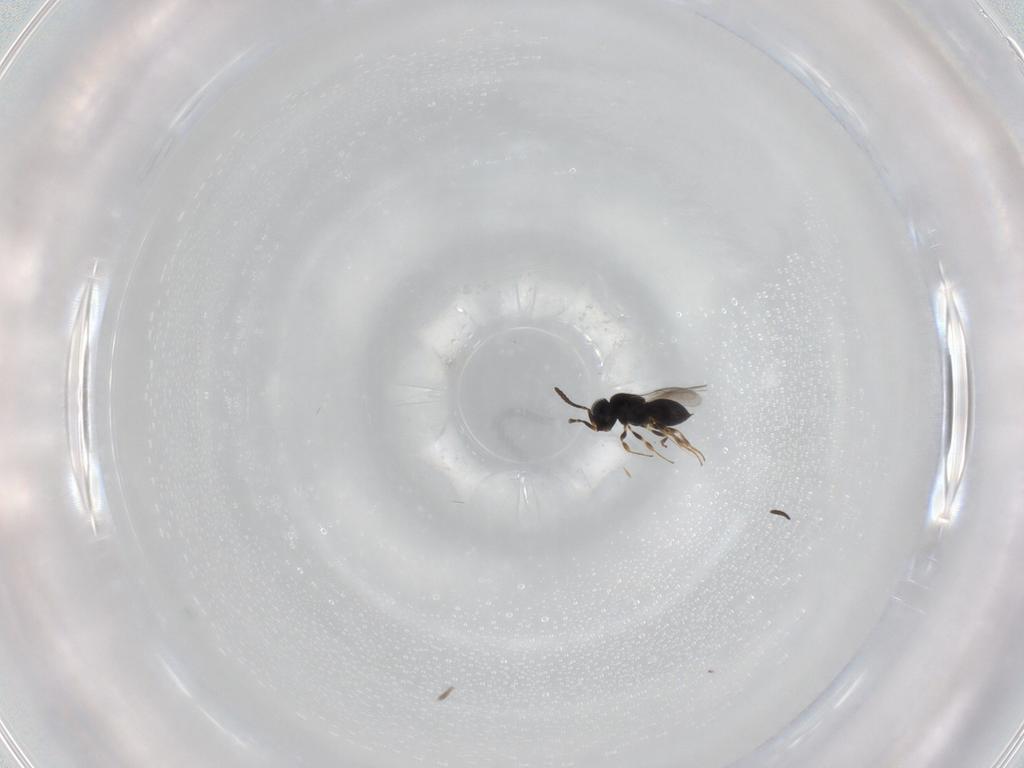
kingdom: Animalia
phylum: Arthropoda
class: Insecta
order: Hymenoptera
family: Scelionidae
